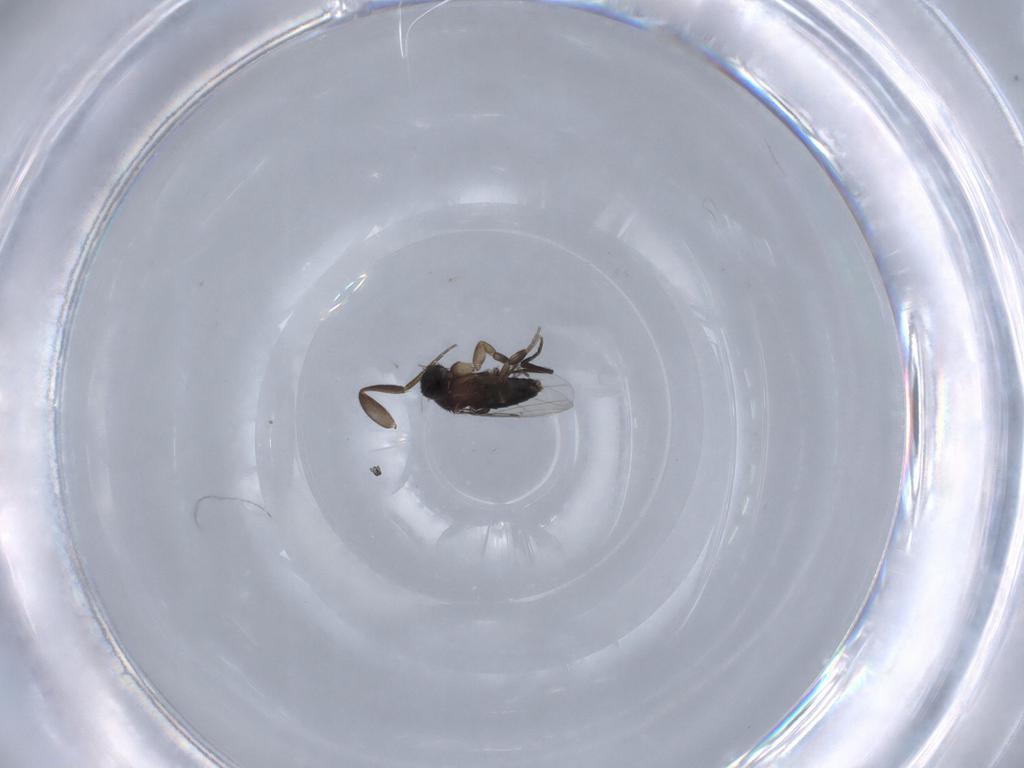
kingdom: Animalia
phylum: Arthropoda
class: Insecta
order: Diptera
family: Phoridae
